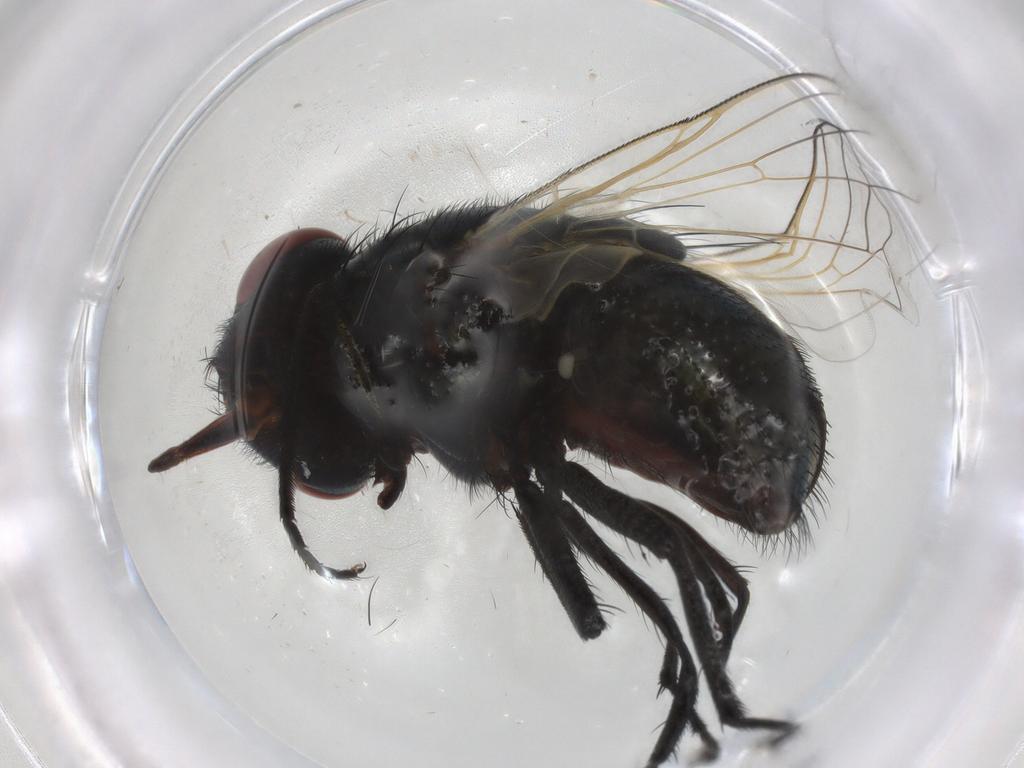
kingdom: Animalia
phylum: Arthropoda
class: Insecta
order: Diptera
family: Muscidae
